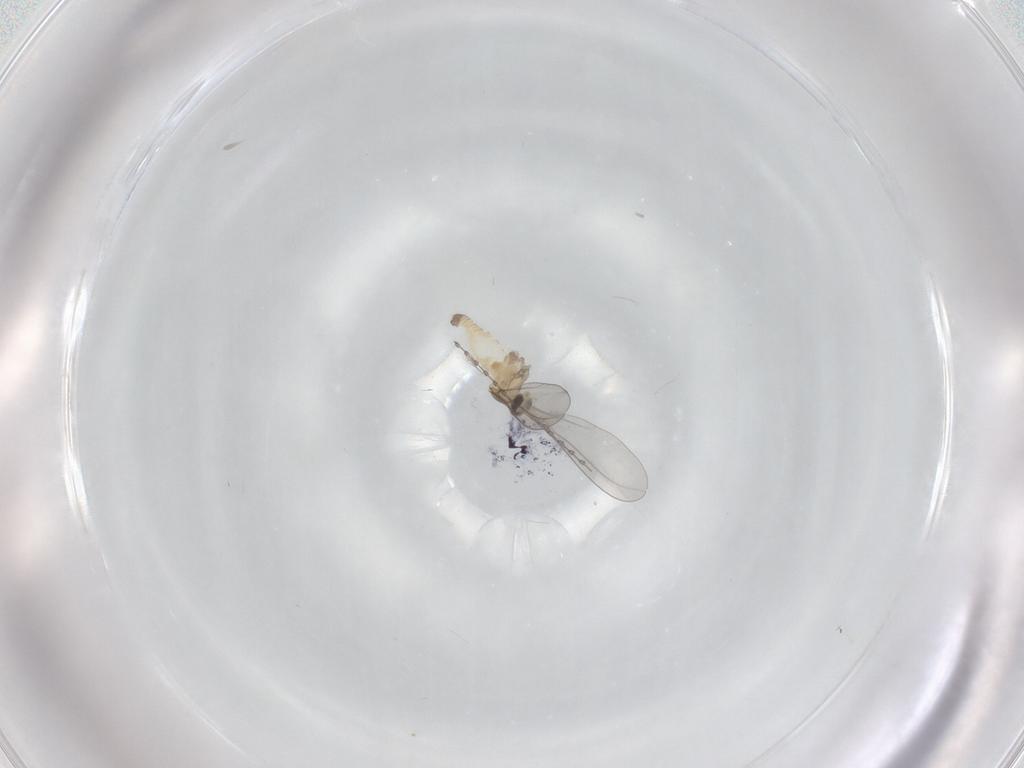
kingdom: Animalia
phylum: Arthropoda
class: Insecta
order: Diptera
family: Cecidomyiidae
